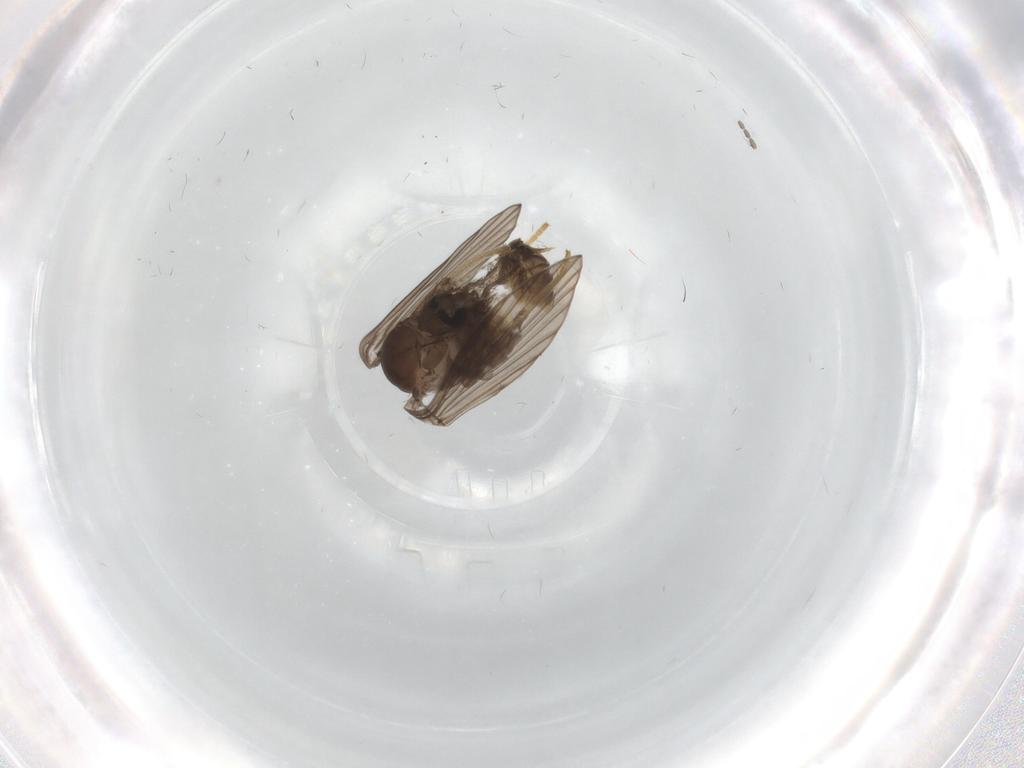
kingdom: Animalia
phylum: Arthropoda
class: Insecta
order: Diptera
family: Psychodidae
